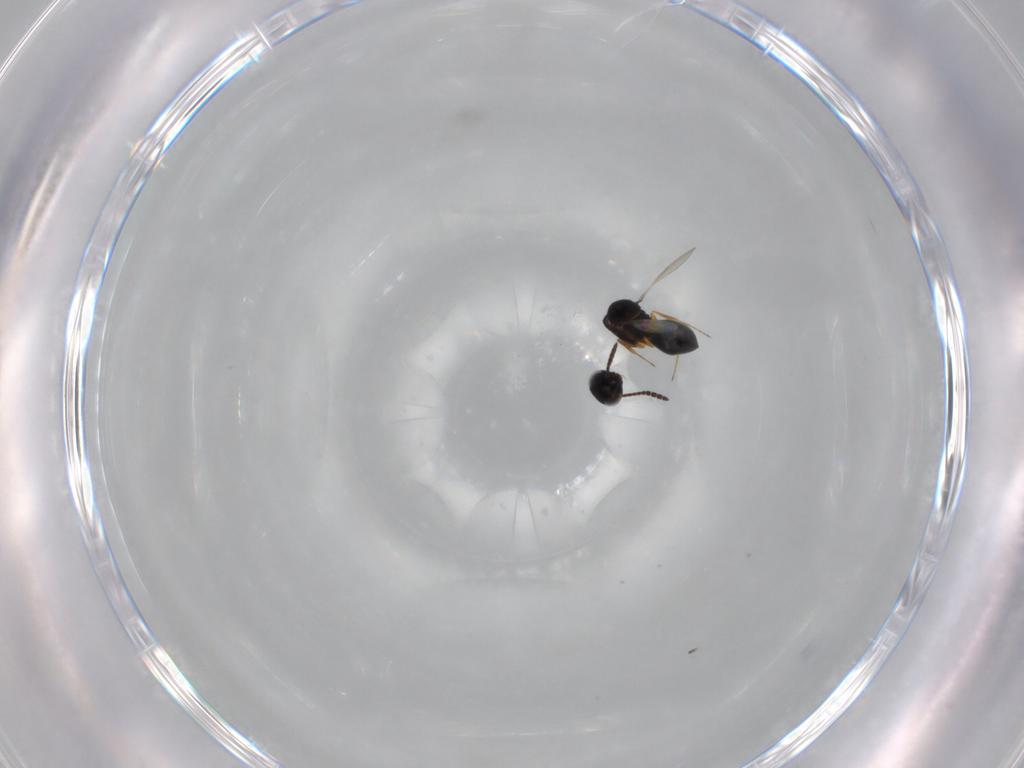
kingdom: Animalia
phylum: Arthropoda
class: Insecta
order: Hymenoptera
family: Scelionidae
